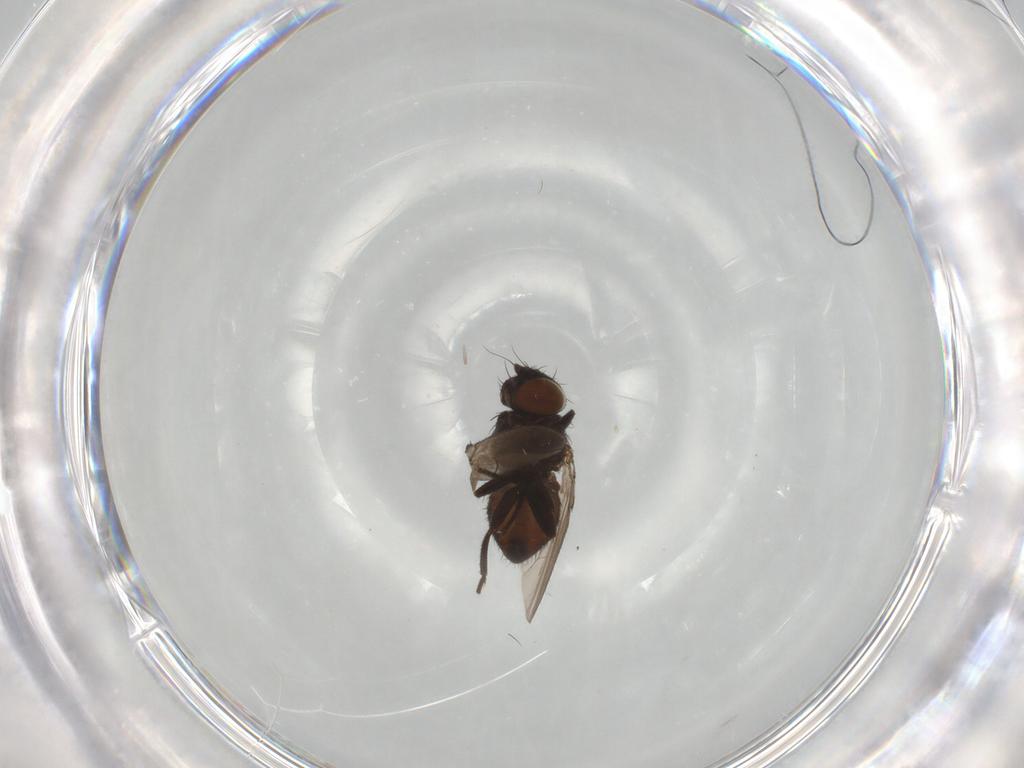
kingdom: Animalia
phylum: Arthropoda
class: Insecta
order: Diptera
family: Milichiidae
